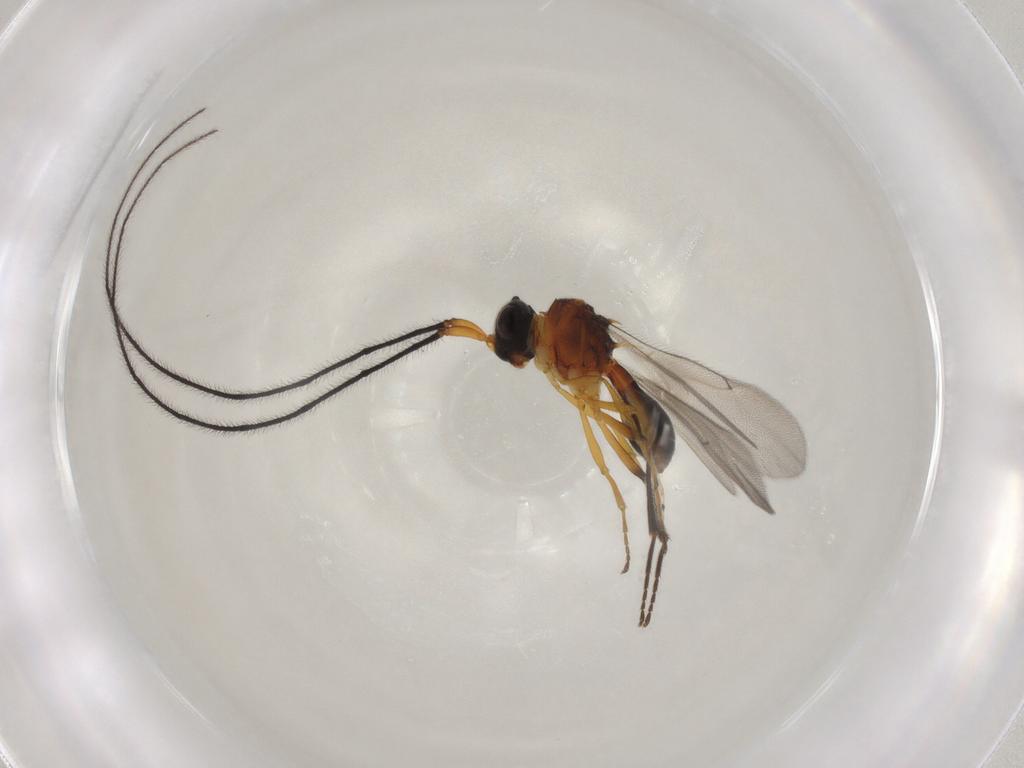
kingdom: Animalia
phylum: Arthropoda
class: Insecta
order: Hymenoptera
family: Scelionidae
